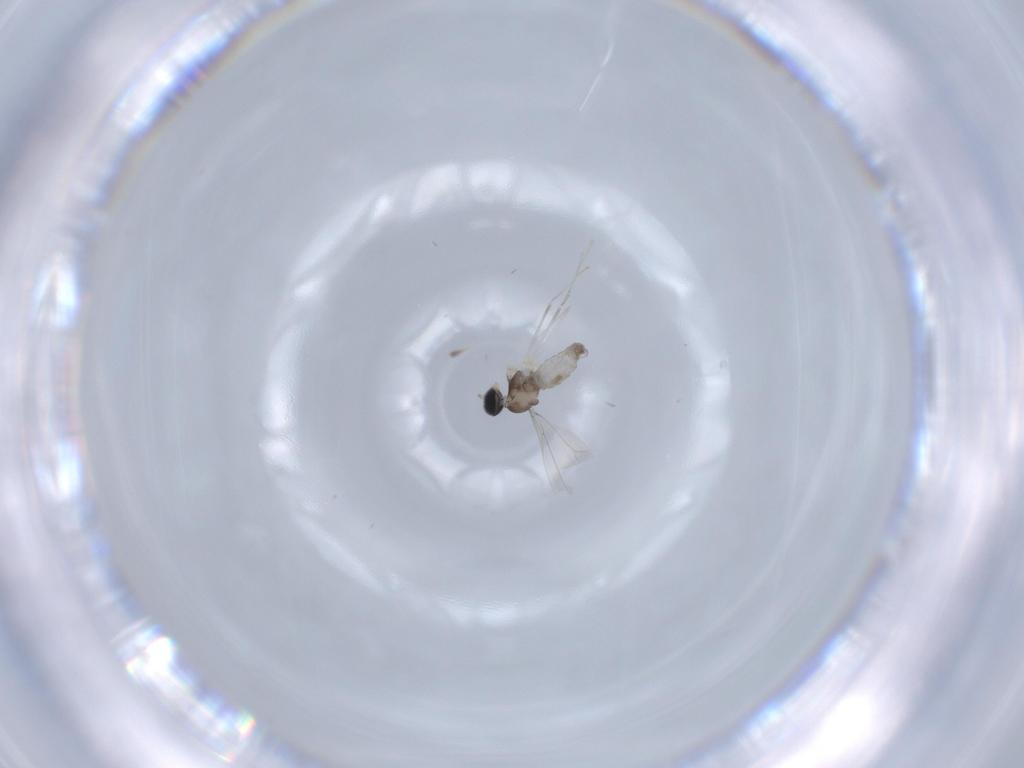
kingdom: Animalia
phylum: Arthropoda
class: Insecta
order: Diptera
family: Cecidomyiidae
